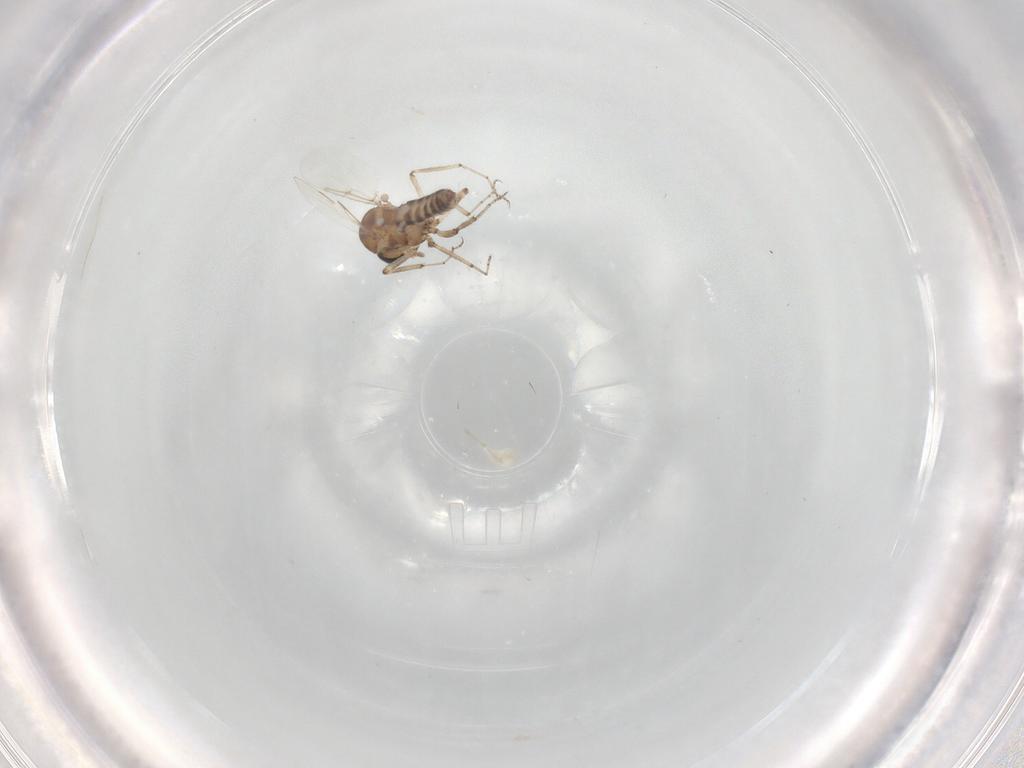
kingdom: Animalia
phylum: Arthropoda
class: Insecta
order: Diptera
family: Ceratopogonidae
